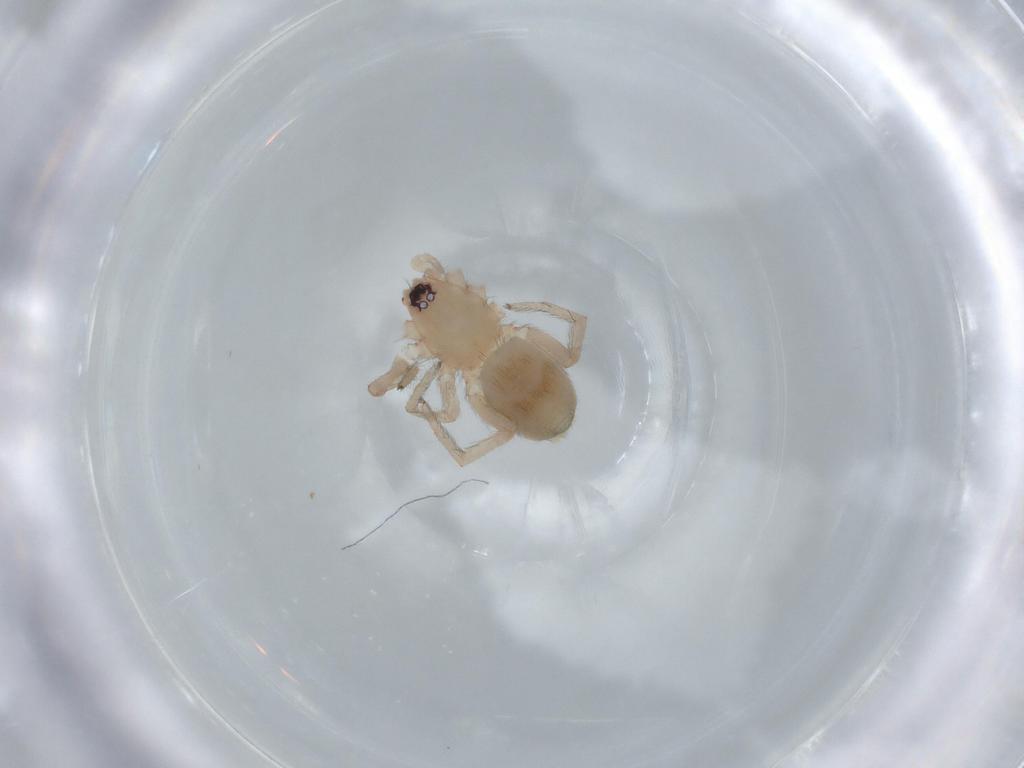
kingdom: Animalia
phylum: Arthropoda
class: Arachnida
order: Araneae
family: Gnaphosidae
